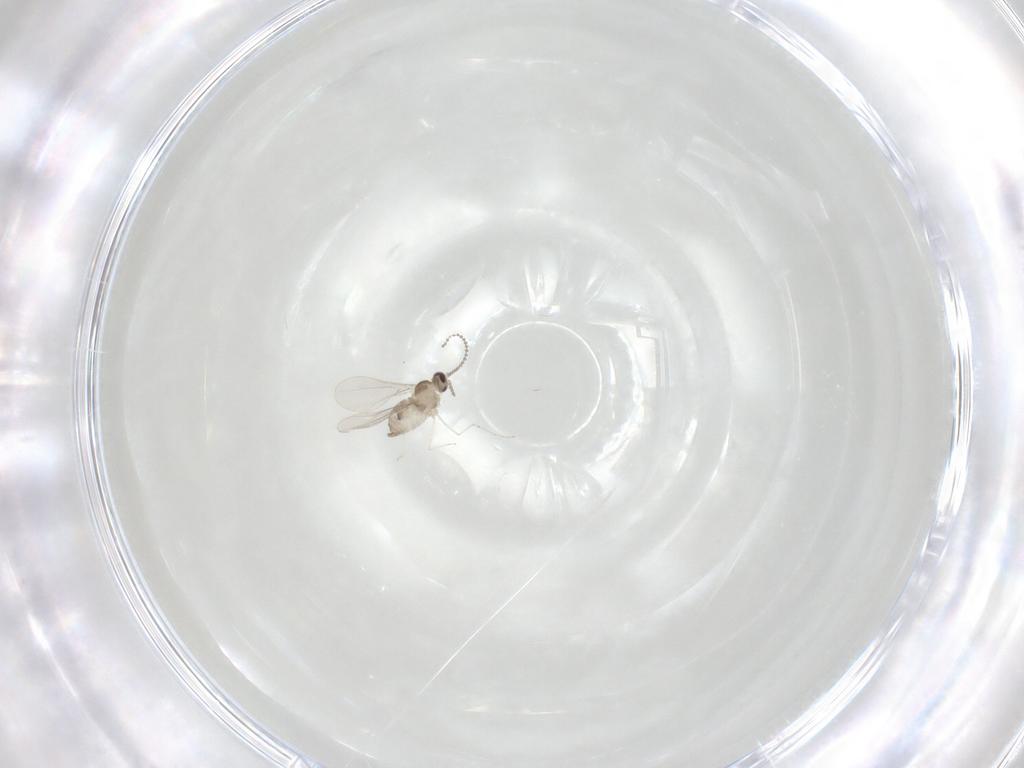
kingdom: Animalia
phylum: Arthropoda
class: Insecta
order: Diptera
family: Cecidomyiidae
